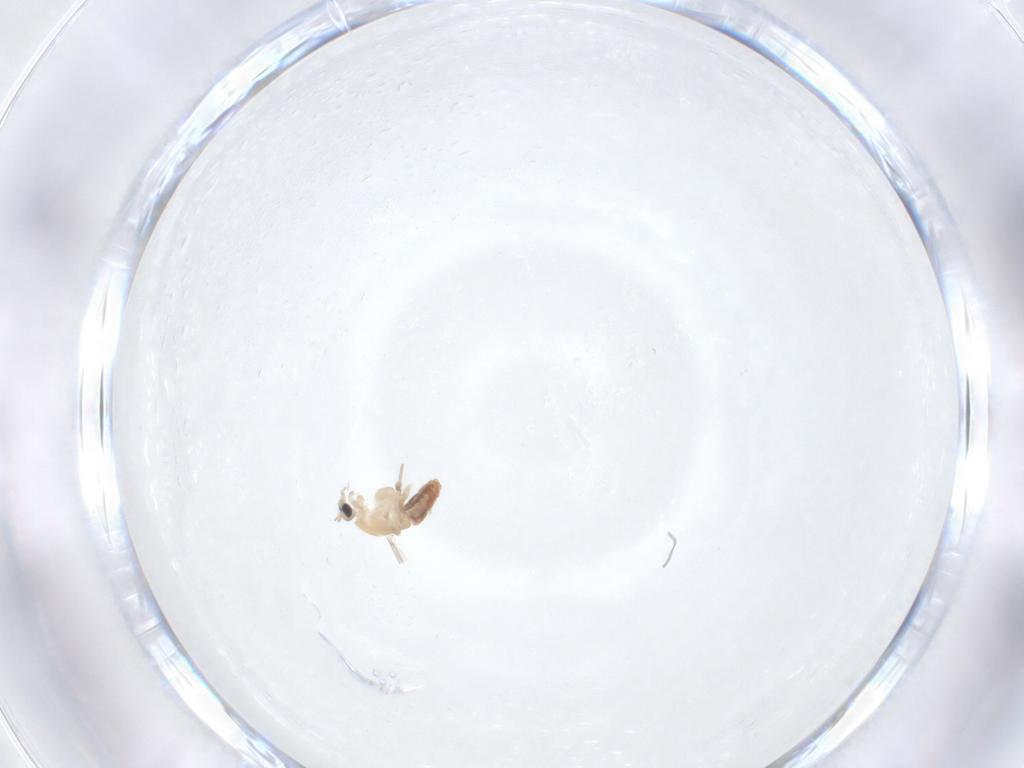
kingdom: Animalia
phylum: Arthropoda
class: Insecta
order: Diptera
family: Chironomidae
